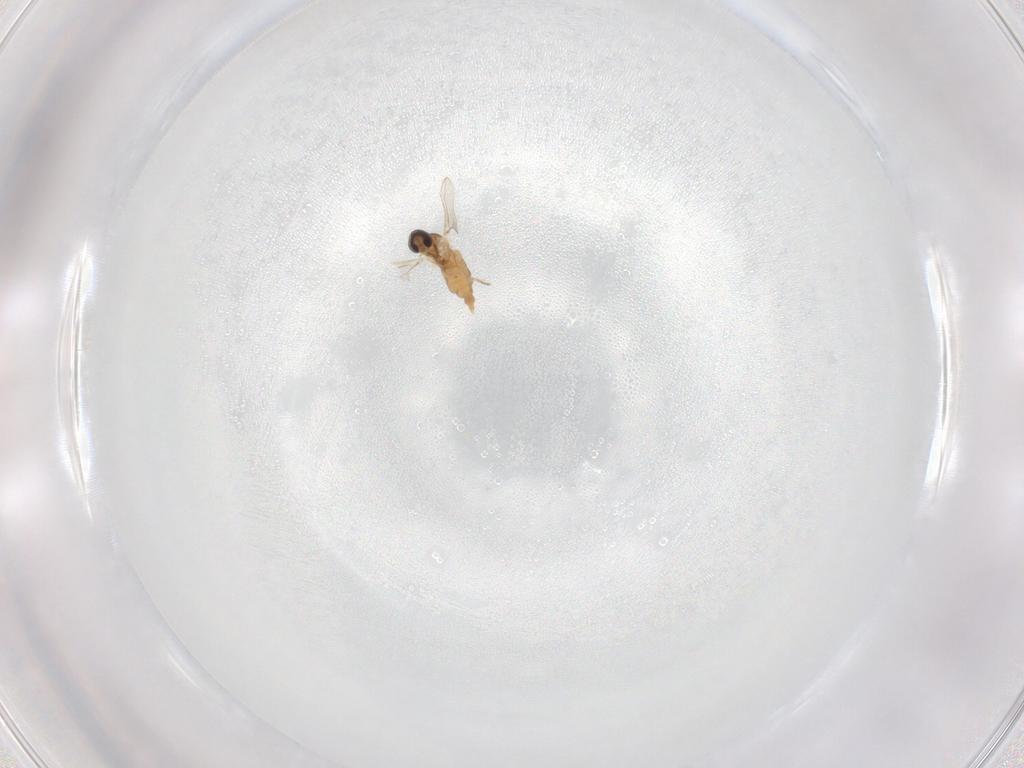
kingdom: Animalia
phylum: Arthropoda
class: Insecta
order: Diptera
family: Cecidomyiidae
